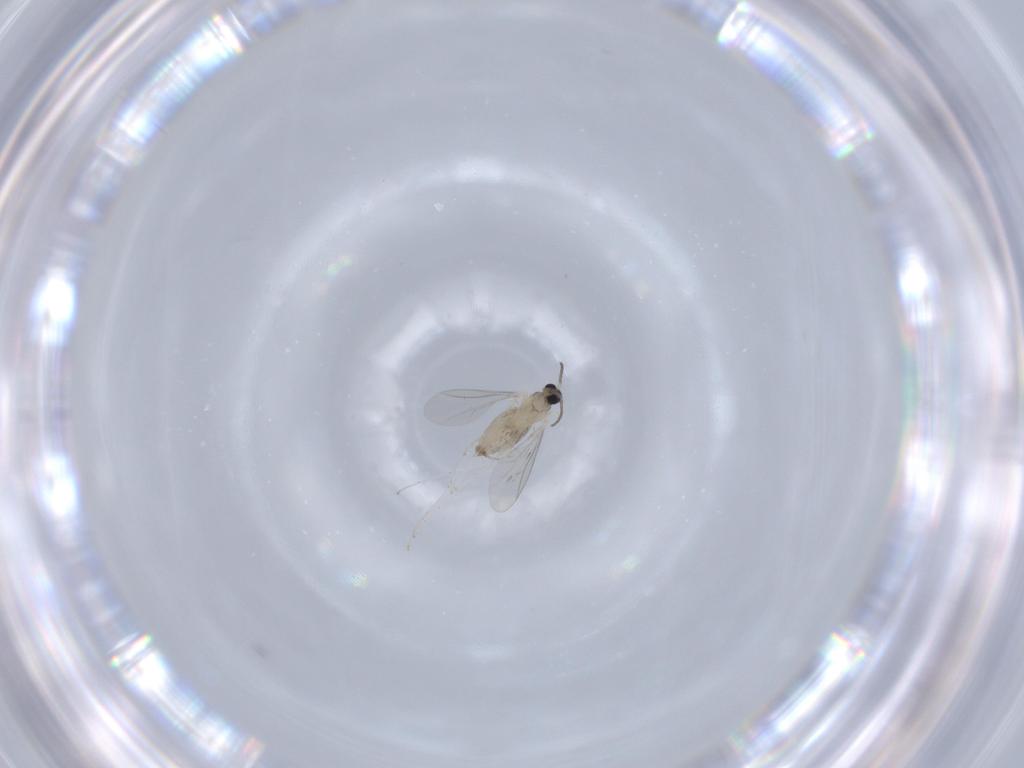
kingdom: Animalia
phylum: Arthropoda
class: Insecta
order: Diptera
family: Cecidomyiidae
